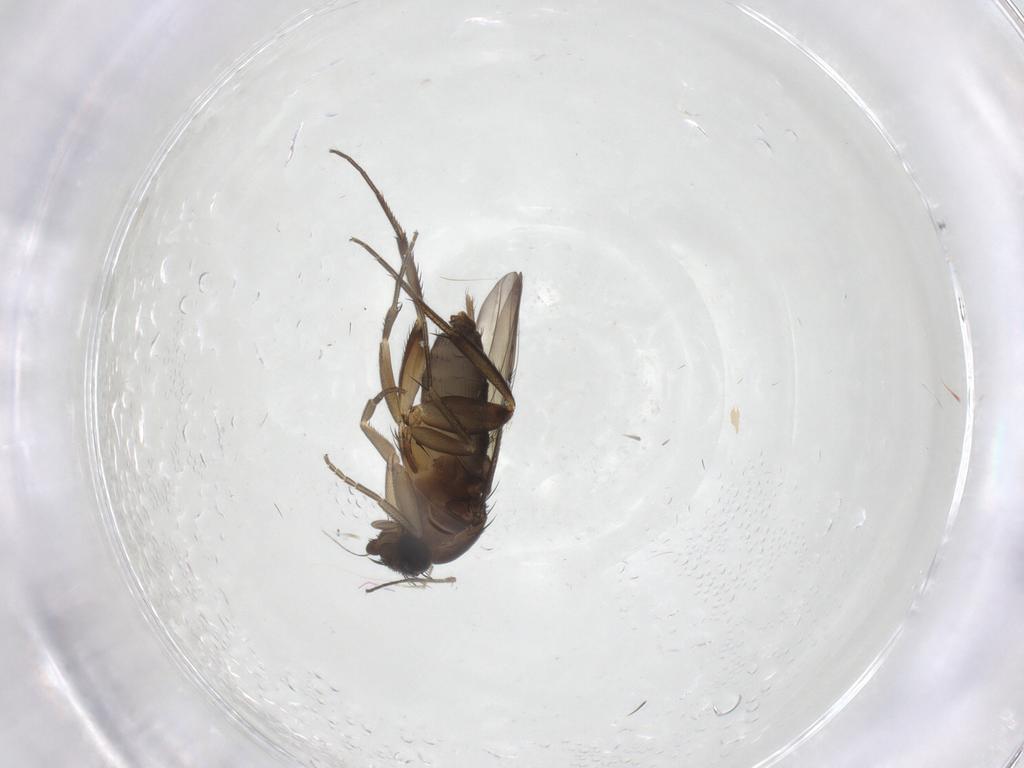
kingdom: Animalia
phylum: Arthropoda
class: Insecta
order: Diptera
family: Phoridae
